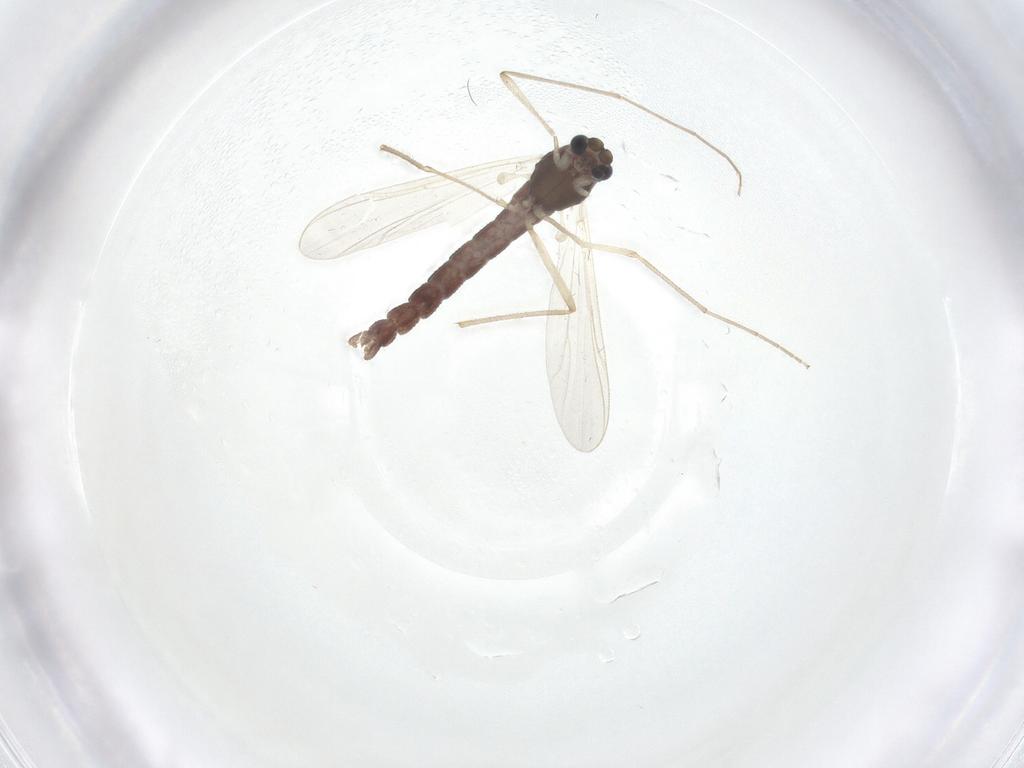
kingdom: Animalia
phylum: Arthropoda
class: Insecta
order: Diptera
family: Chironomidae
